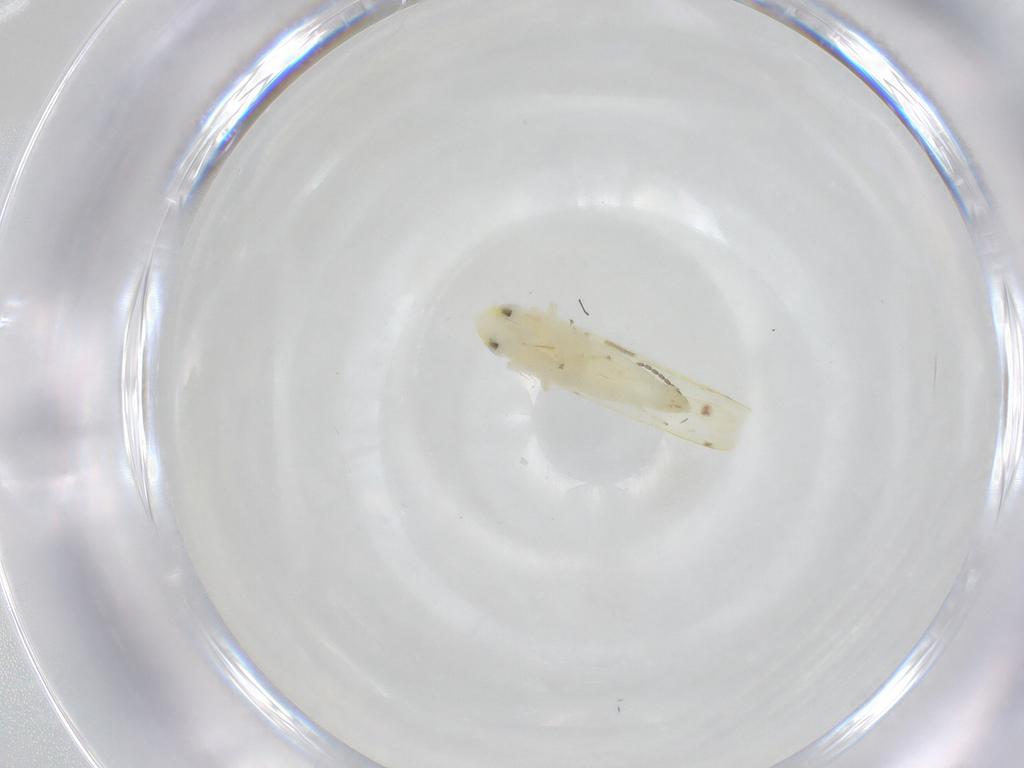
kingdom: Animalia
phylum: Arthropoda
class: Insecta
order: Hemiptera
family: Cicadellidae
